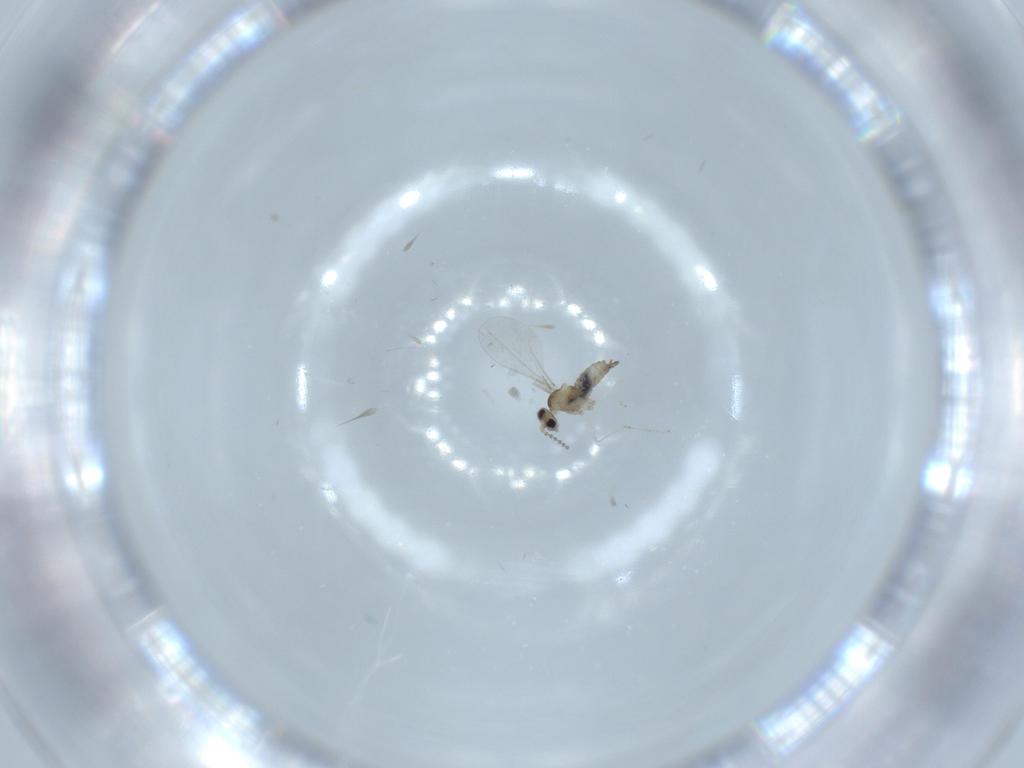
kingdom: Animalia
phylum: Arthropoda
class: Insecta
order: Diptera
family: Cecidomyiidae
